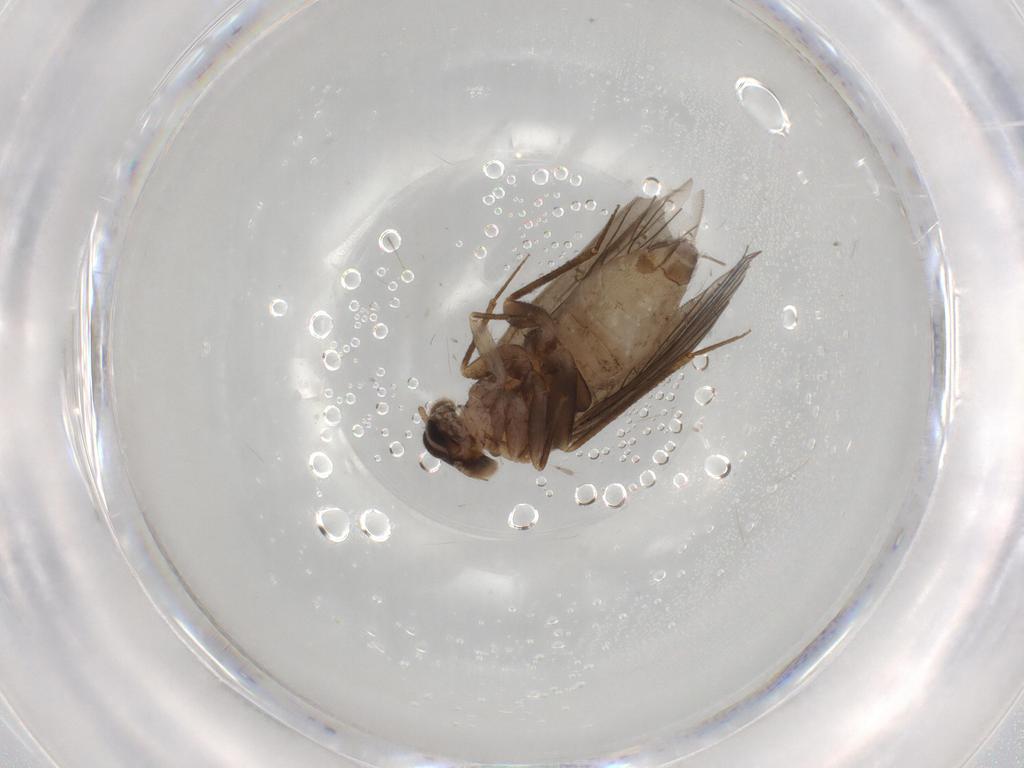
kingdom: Animalia
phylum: Arthropoda
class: Insecta
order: Psocodea
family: Lepidopsocidae
